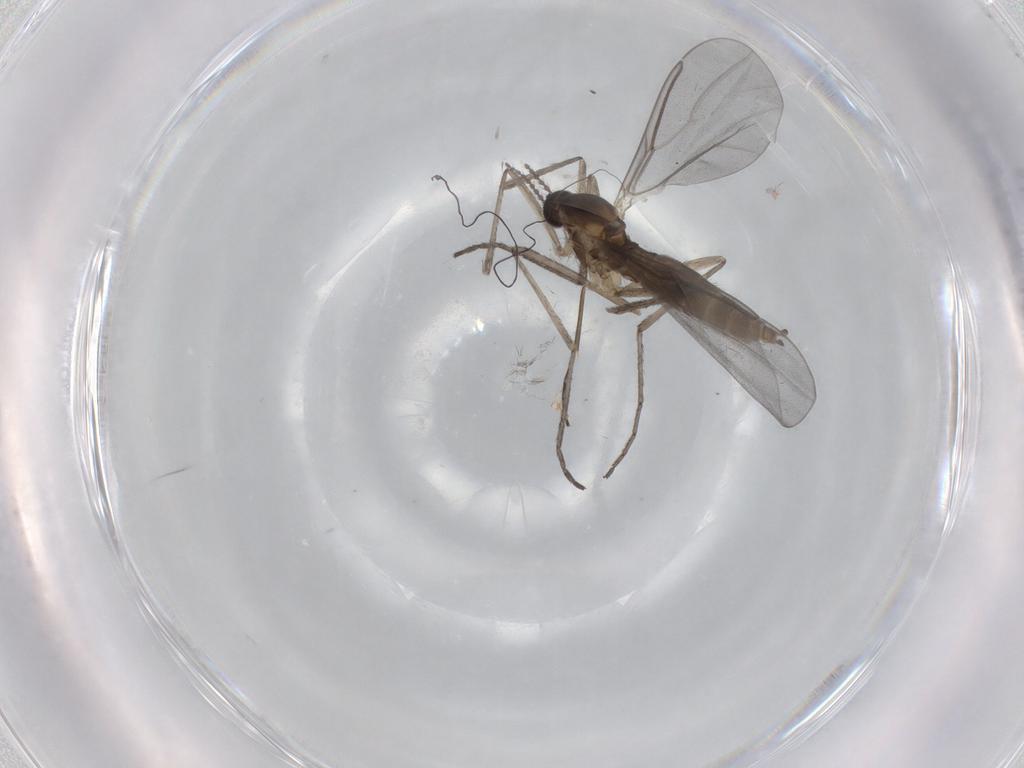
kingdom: Animalia
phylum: Arthropoda
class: Insecta
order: Diptera
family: Cecidomyiidae
